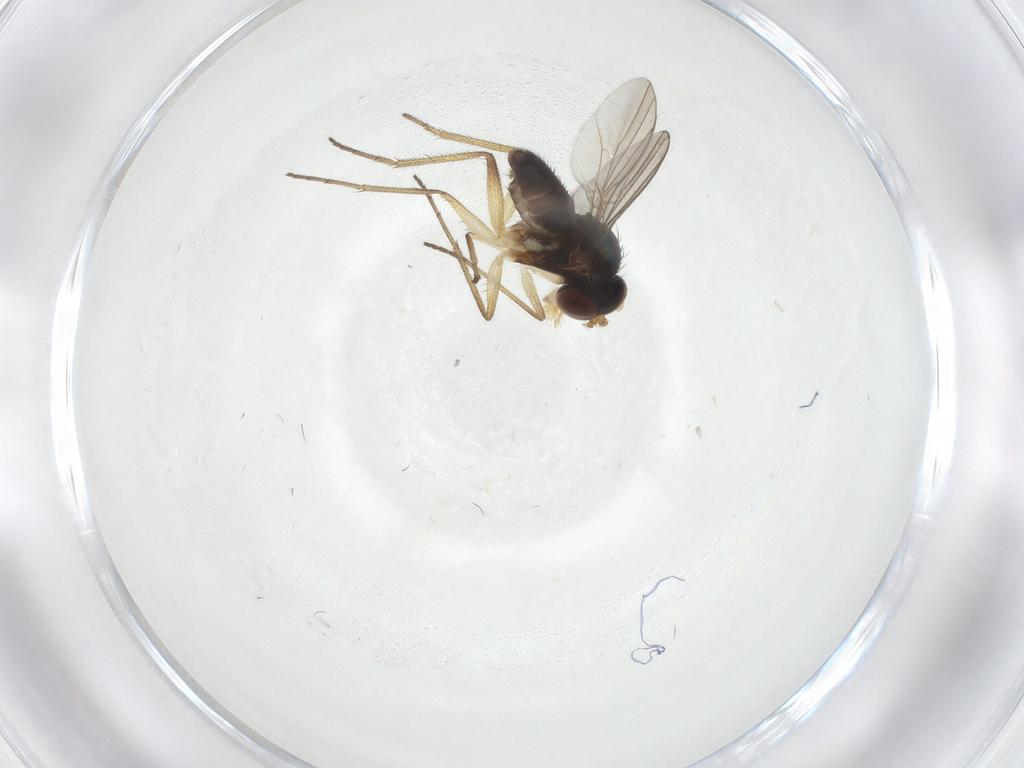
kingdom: Animalia
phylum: Arthropoda
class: Insecta
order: Diptera
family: Dolichopodidae
